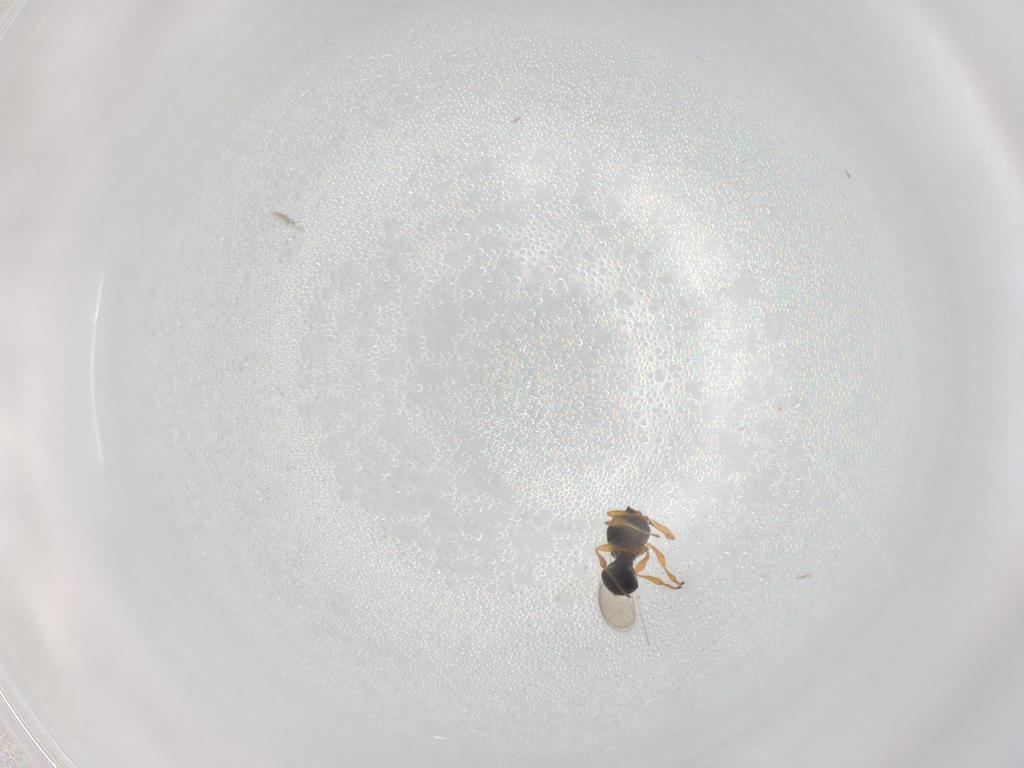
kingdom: Animalia
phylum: Arthropoda
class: Insecta
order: Hymenoptera
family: Platygastridae
